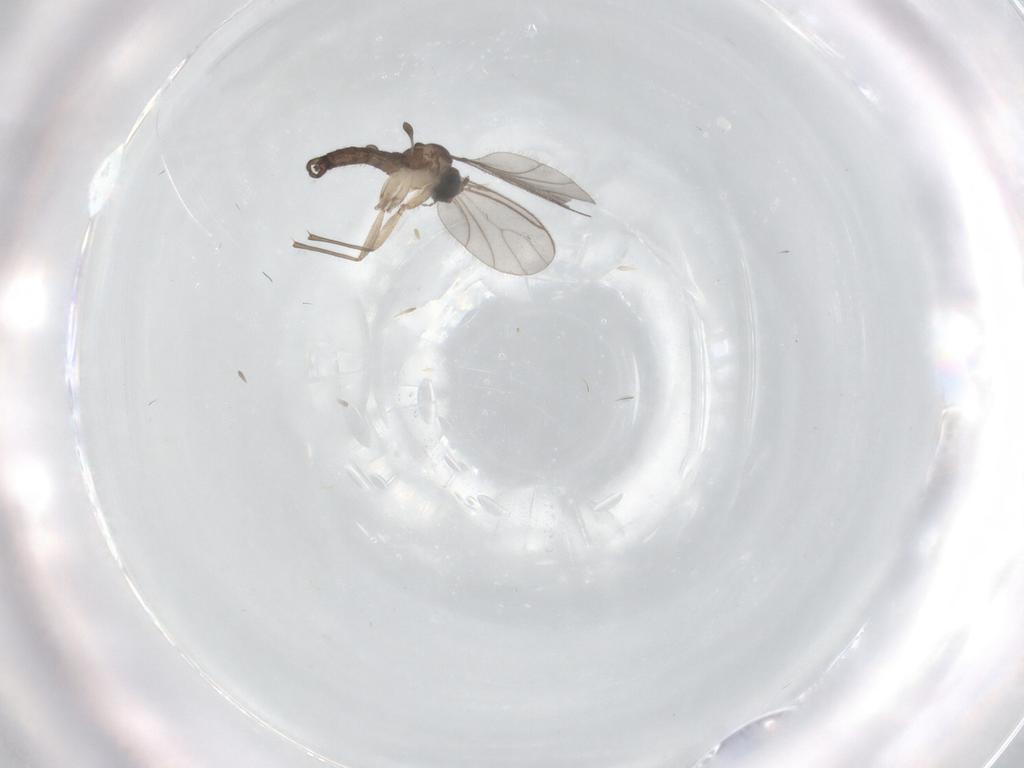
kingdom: Animalia
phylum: Arthropoda
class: Insecta
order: Diptera
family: Sciaridae
